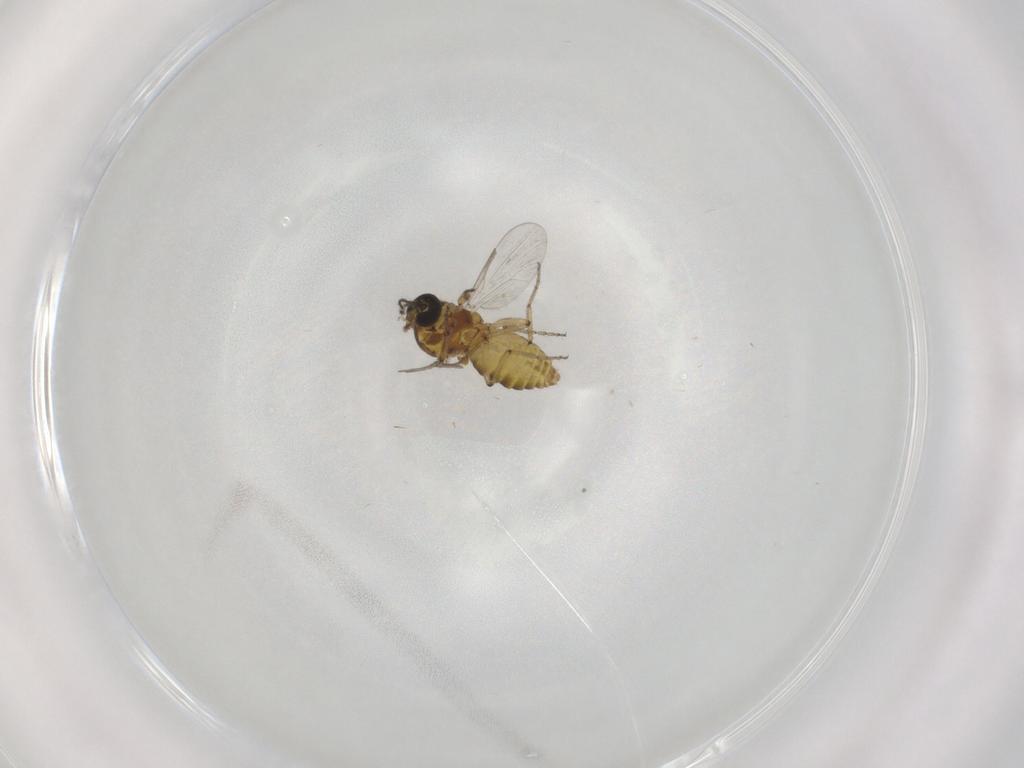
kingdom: Animalia
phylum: Arthropoda
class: Insecta
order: Diptera
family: Ceratopogonidae
